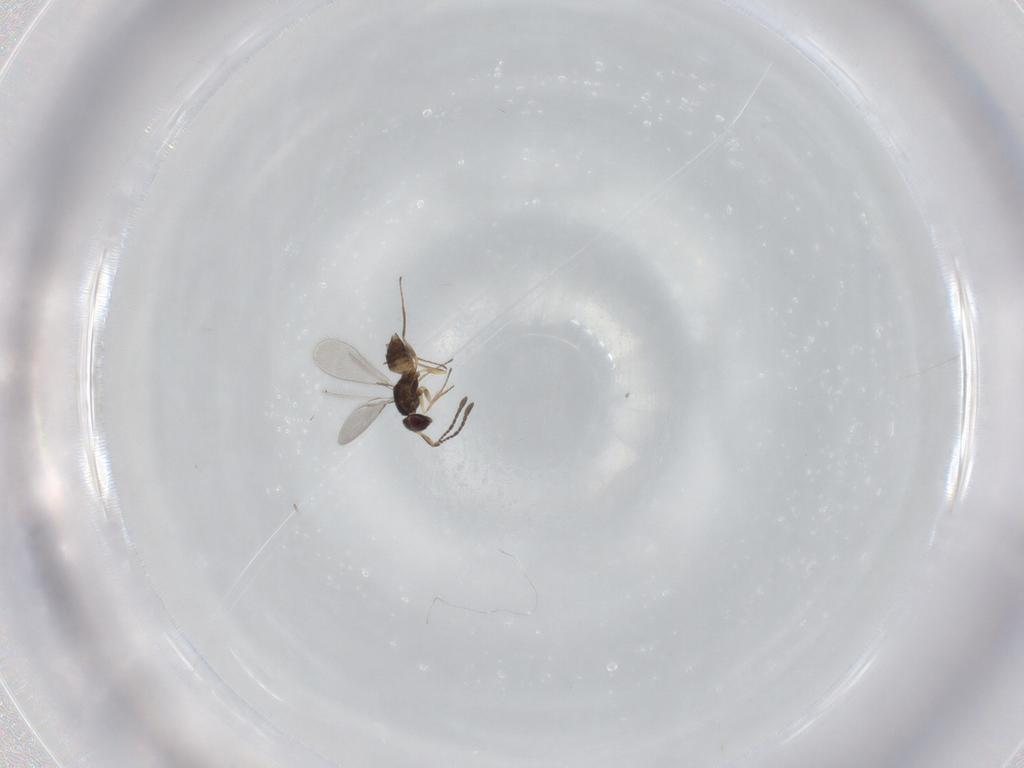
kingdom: Animalia
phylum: Arthropoda
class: Insecta
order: Hymenoptera
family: Mymaridae
